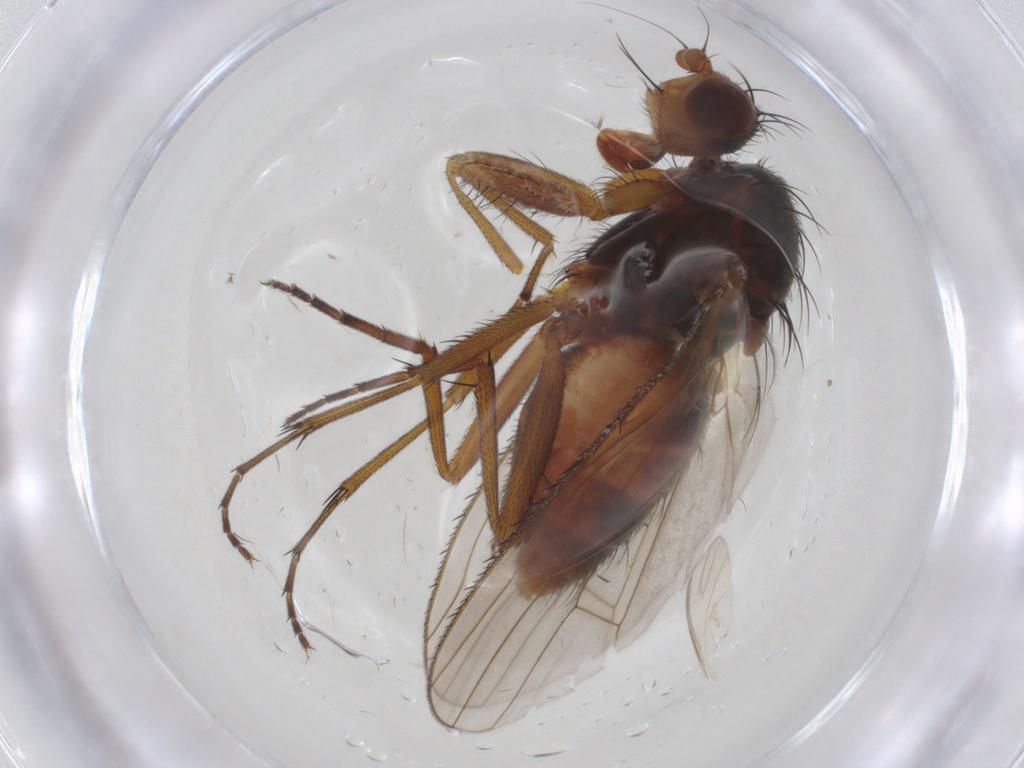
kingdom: Animalia
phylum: Arthropoda
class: Insecta
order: Diptera
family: Heleomyzidae
